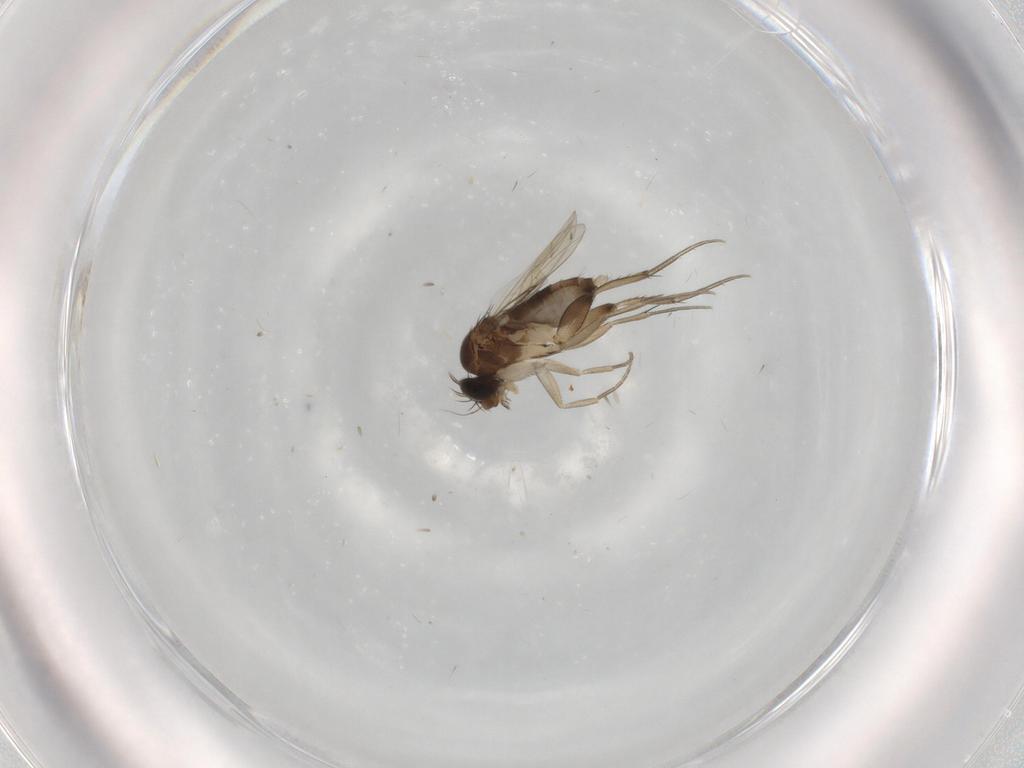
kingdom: Animalia
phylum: Arthropoda
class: Insecta
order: Diptera
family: Phoridae
